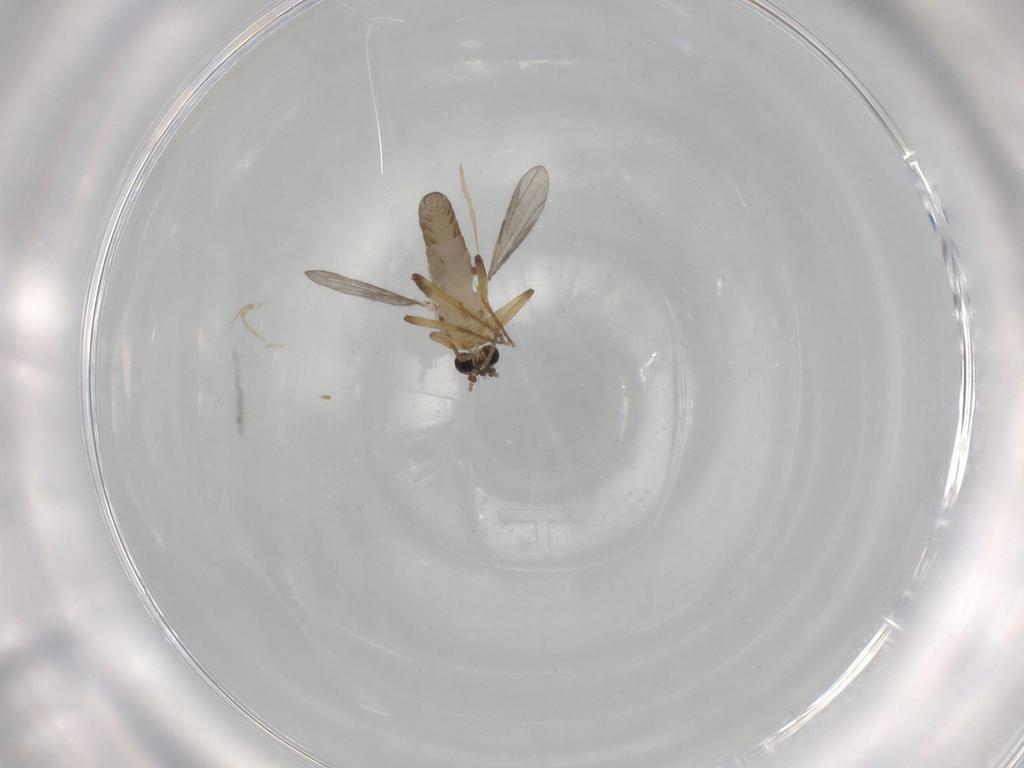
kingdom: Animalia
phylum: Arthropoda
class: Insecta
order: Diptera
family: Ceratopogonidae
